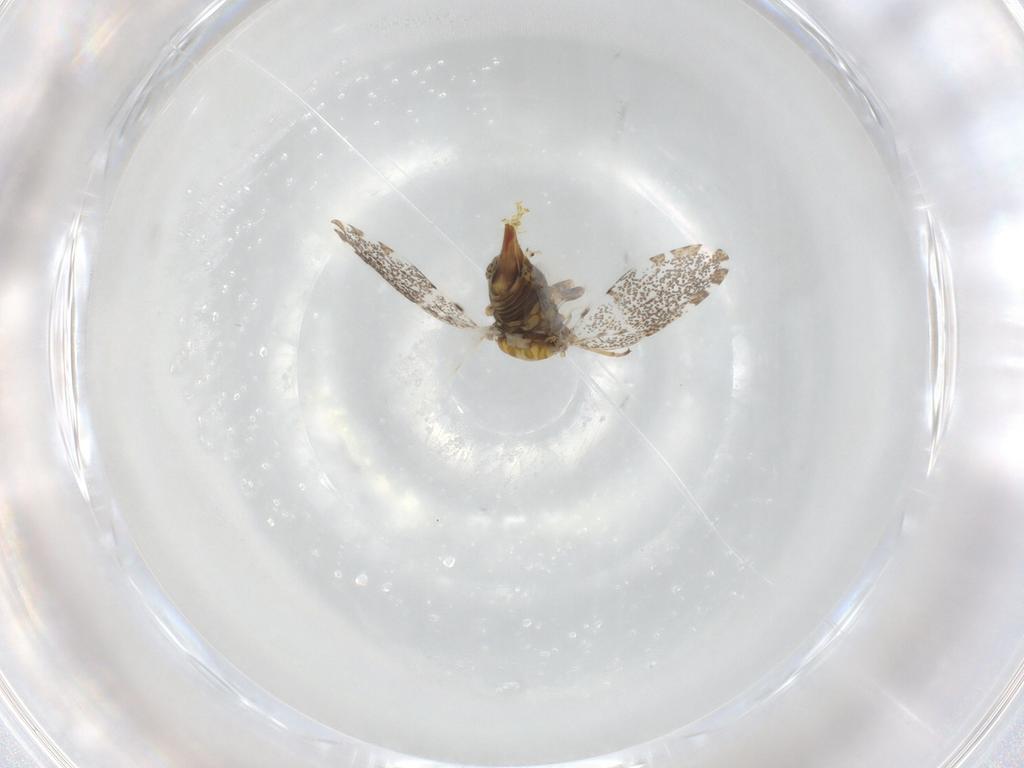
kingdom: Animalia
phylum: Arthropoda
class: Insecta
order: Hemiptera
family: Psylloidea_incertae_sedis
